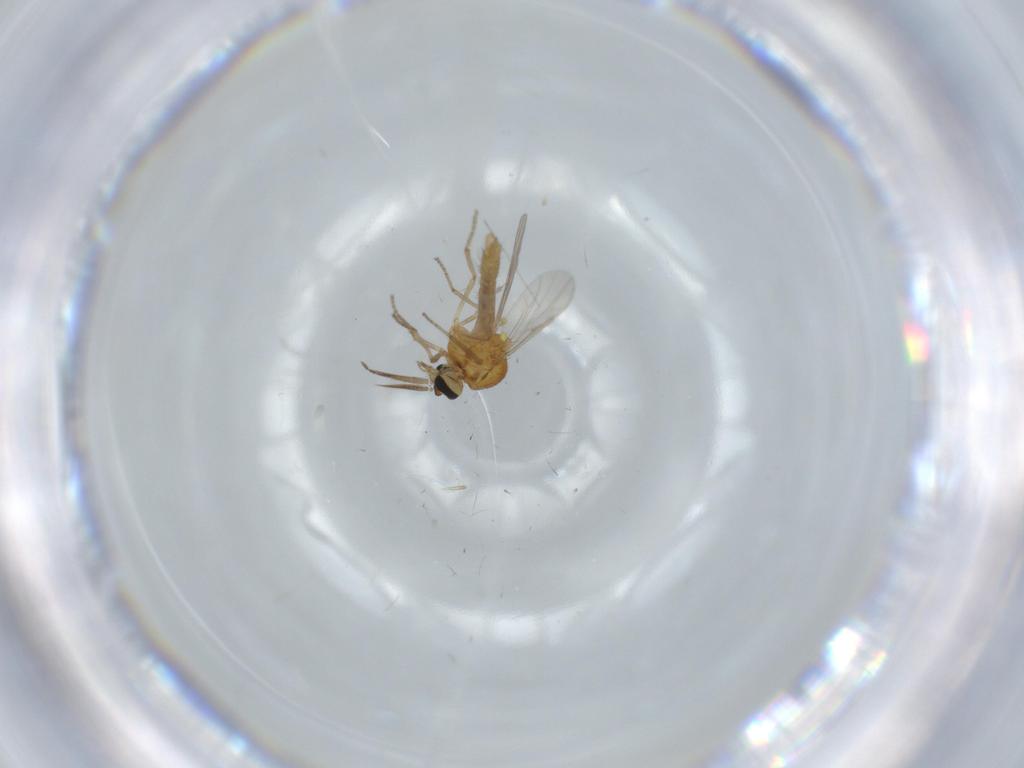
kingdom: Animalia
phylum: Arthropoda
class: Insecta
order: Diptera
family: Ceratopogonidae
